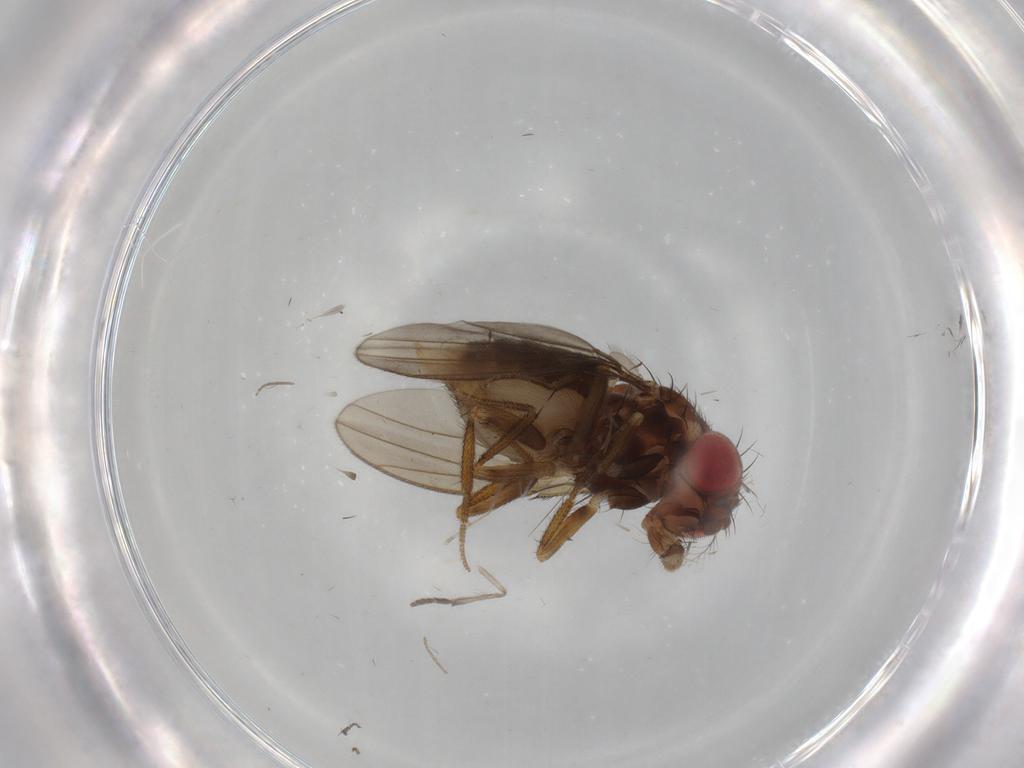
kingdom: Animalia
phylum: Arthropoda
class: Insecta
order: Diptera
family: Cecidomyiidae
